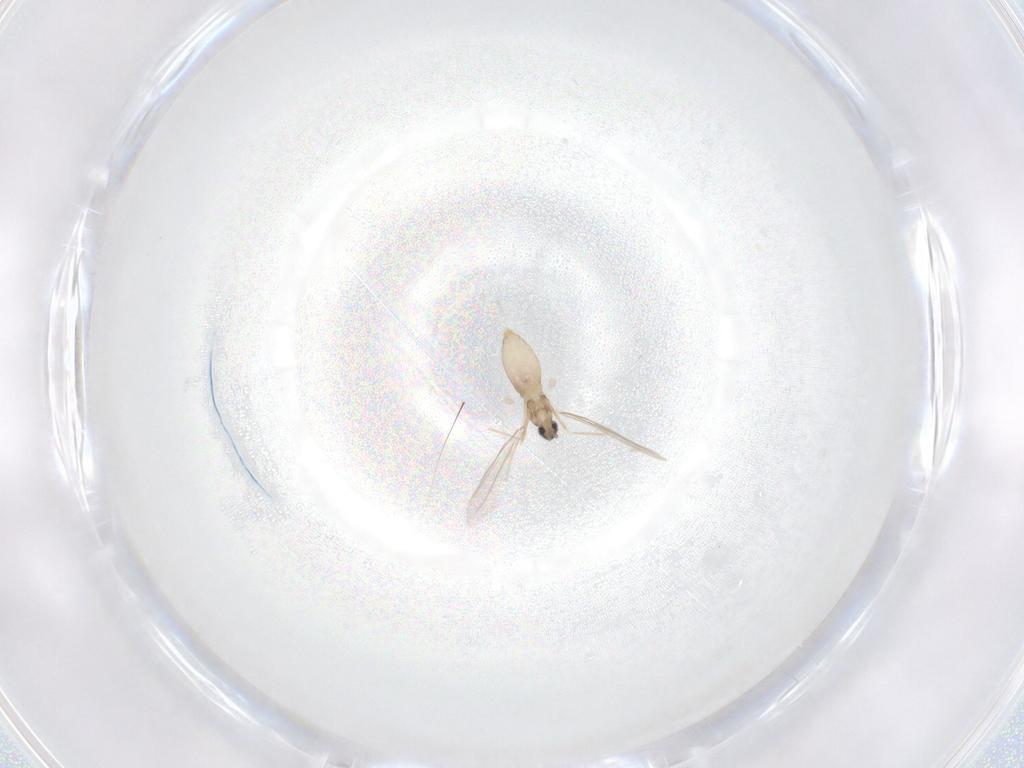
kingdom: Animalia
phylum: Arthropoda
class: Insecta
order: Diptera
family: Cecidomyiidae
